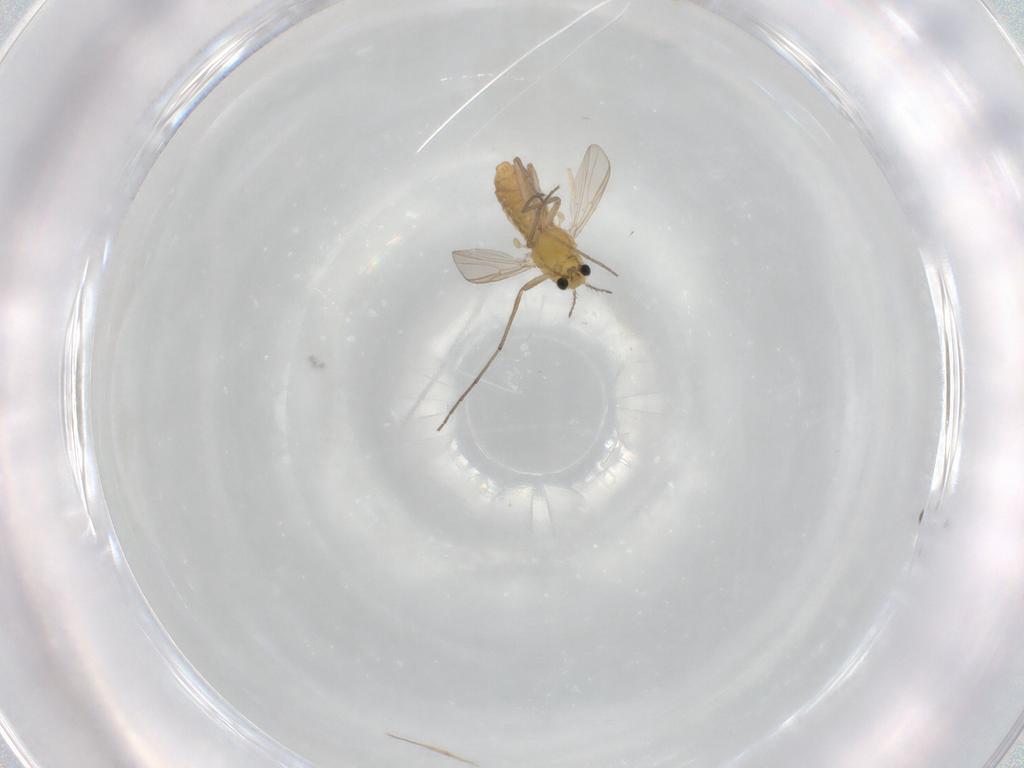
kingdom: Animalia
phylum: Arthropoda
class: Insecta
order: Diptera
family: Chironomidae
